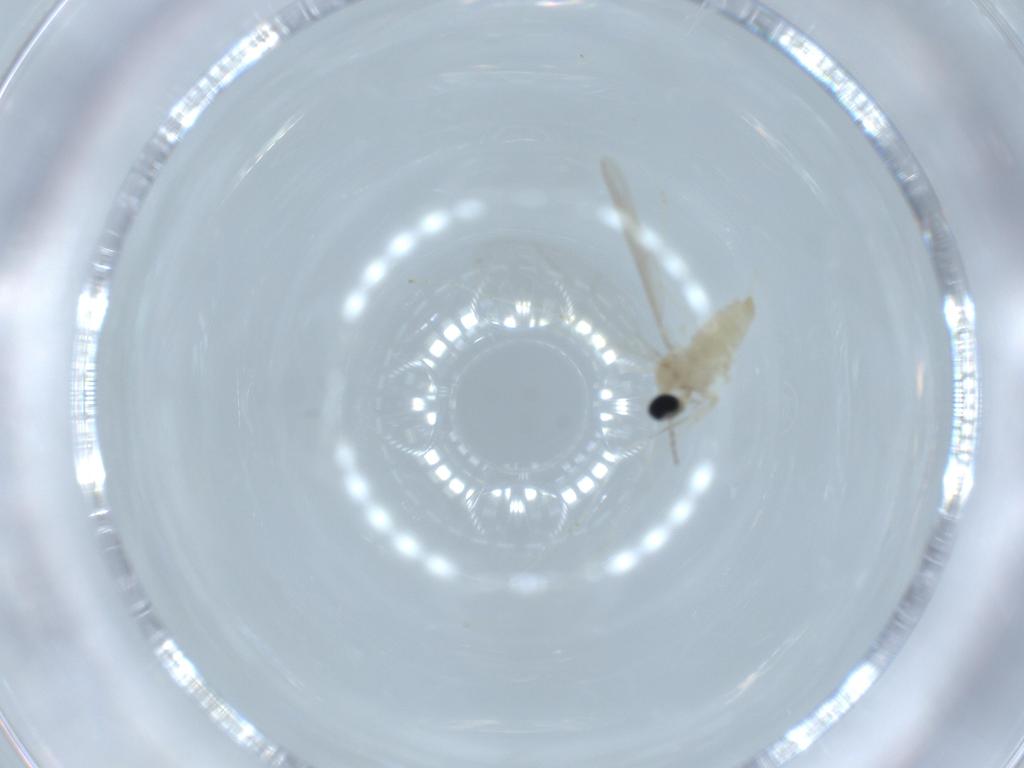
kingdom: Animalia
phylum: Arthropoda
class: Insecta
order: Diptera
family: Cecidomyiidae
